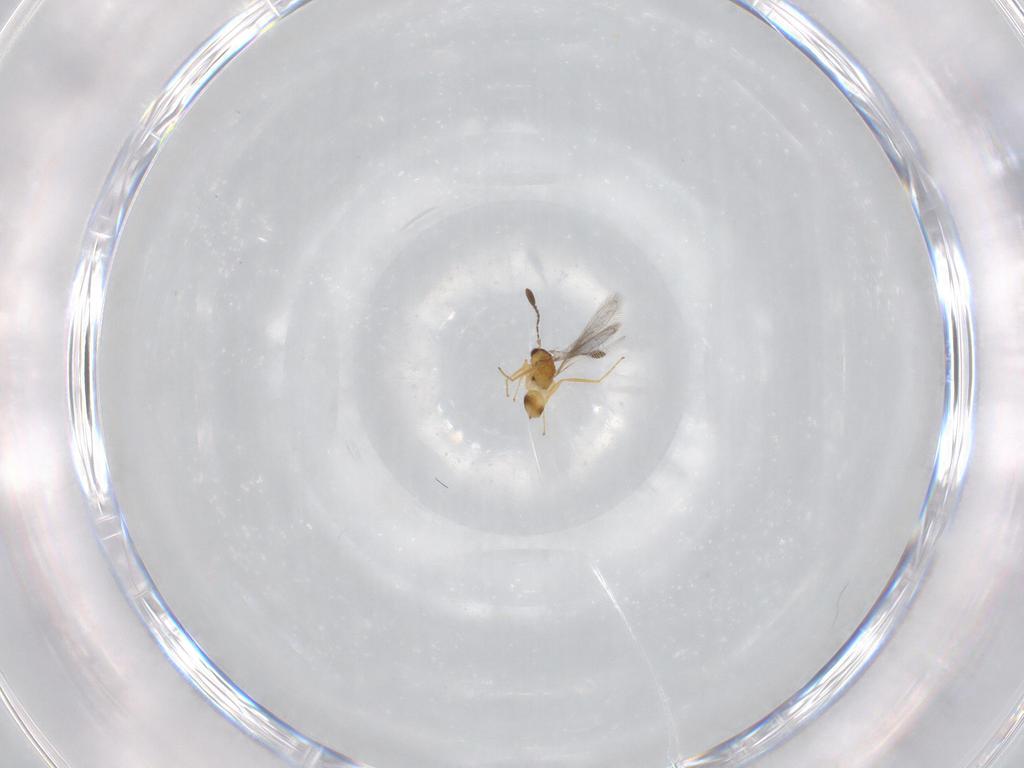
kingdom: Animalia
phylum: Arthropoda
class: Insecta
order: Hymenoptera
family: Mymaridae
